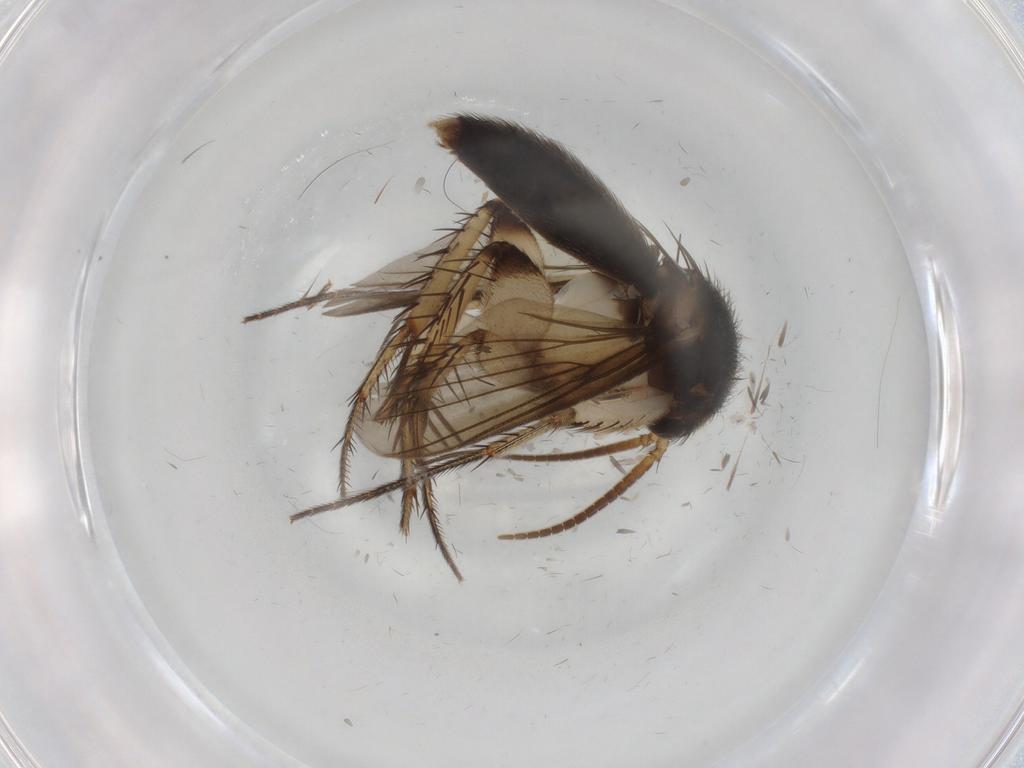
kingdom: Animalia
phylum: Arthropoda
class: Insecta
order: Diptera
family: Mycetophilidae
